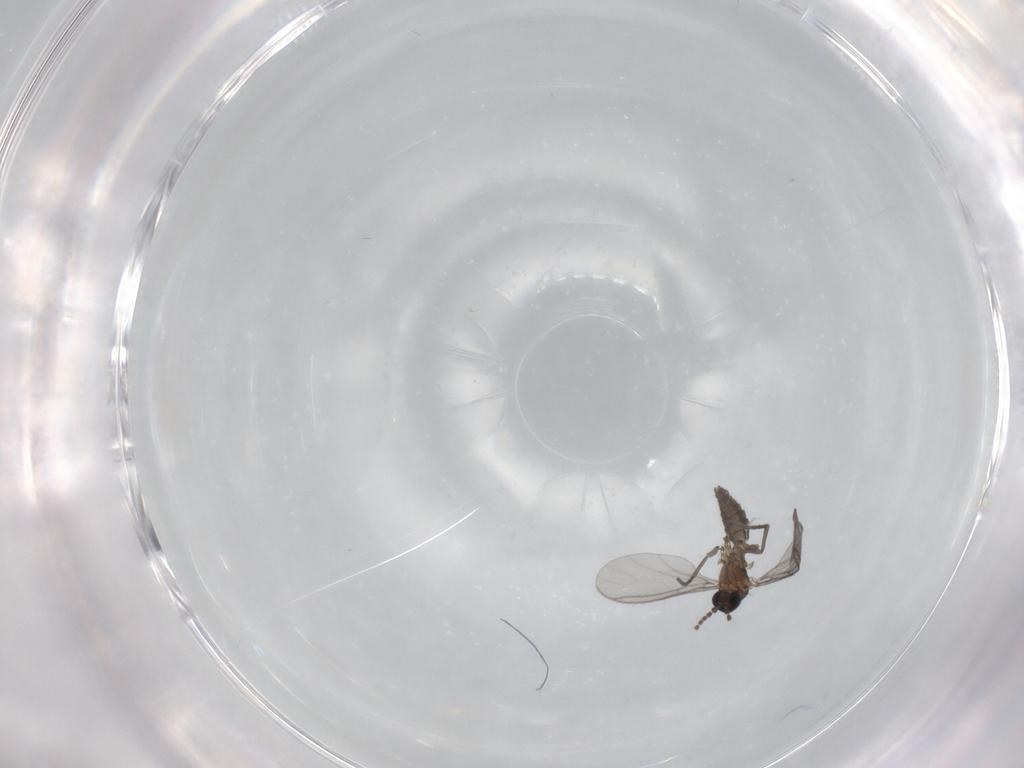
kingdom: Animalia
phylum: Arthropoda
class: Insecta
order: Diptera
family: Sciaridae
